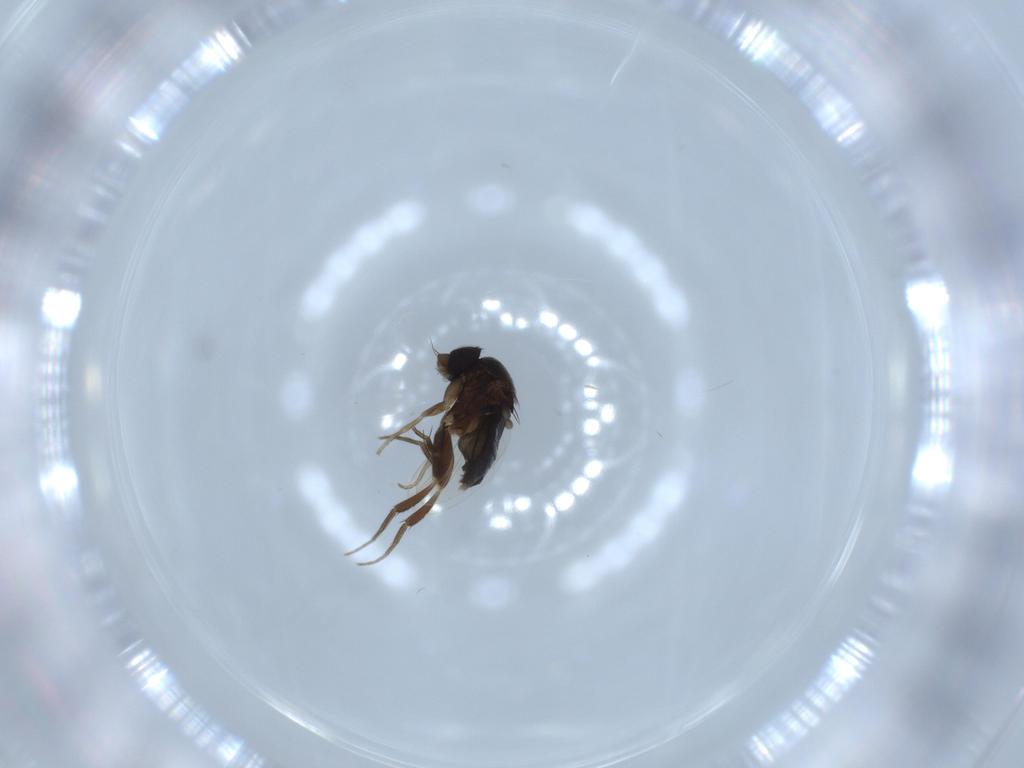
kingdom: Animalia
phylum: Arthropoda
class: Insecta
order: Diptera
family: Phoridae
